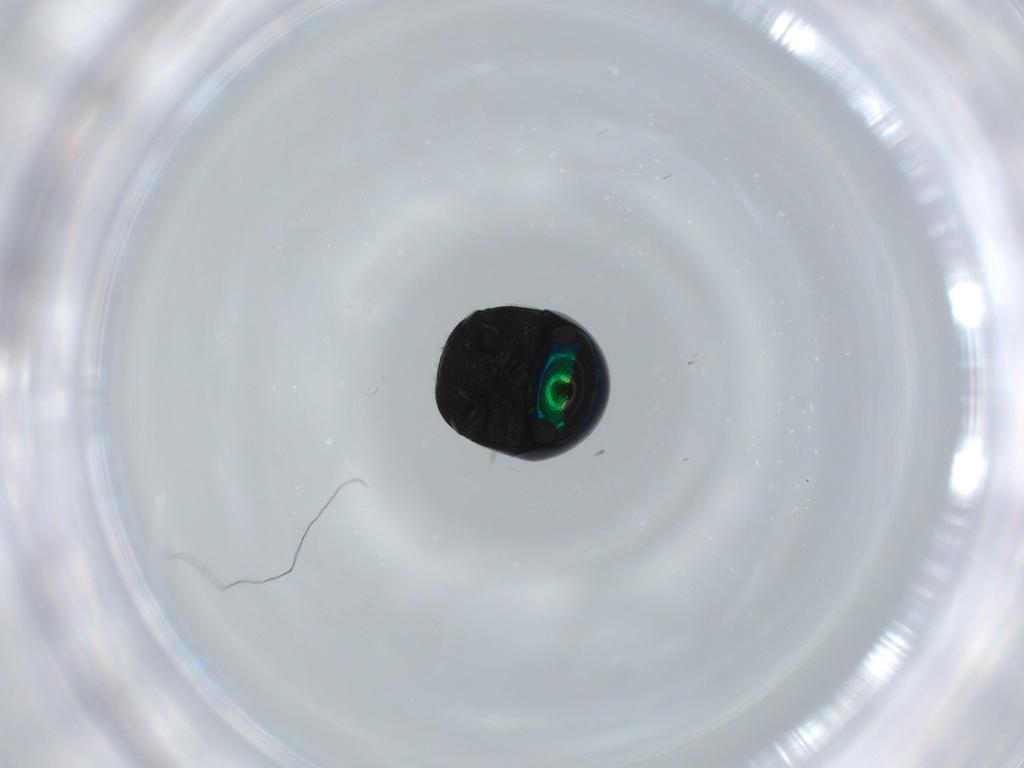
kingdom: Animalia
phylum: Arthropoda
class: Insecta
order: Coleoptera
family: Cybocephalidae
